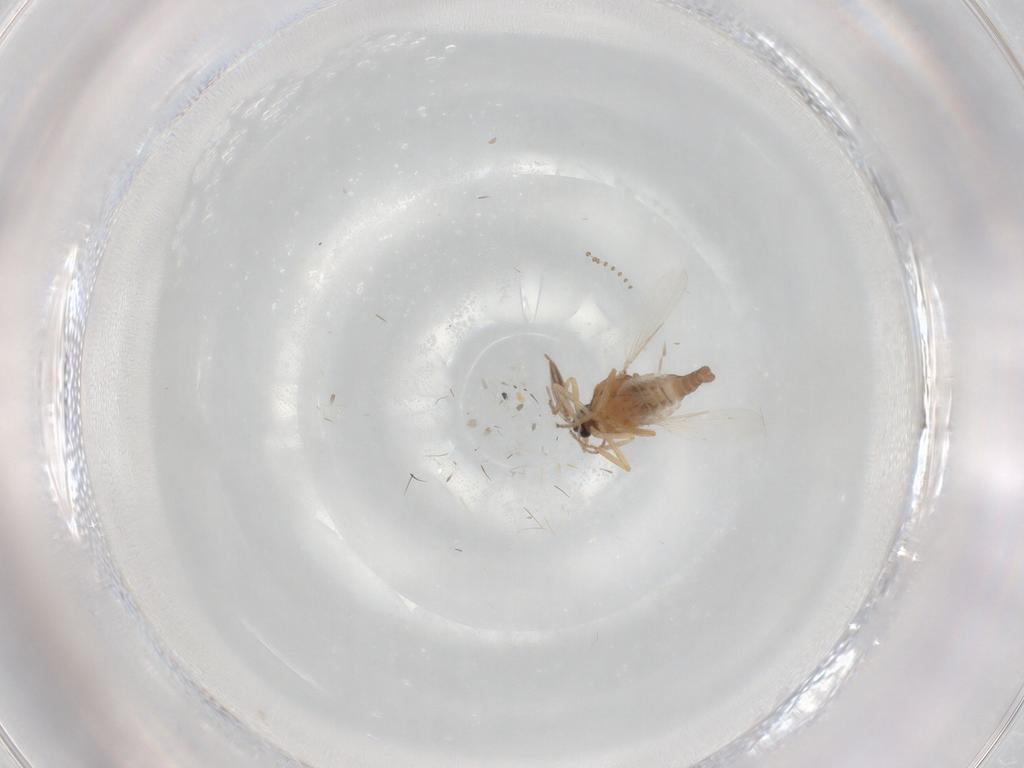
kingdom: Animalia
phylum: Arthropoda
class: Insecta
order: Diptera
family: Ceratopogonidae
